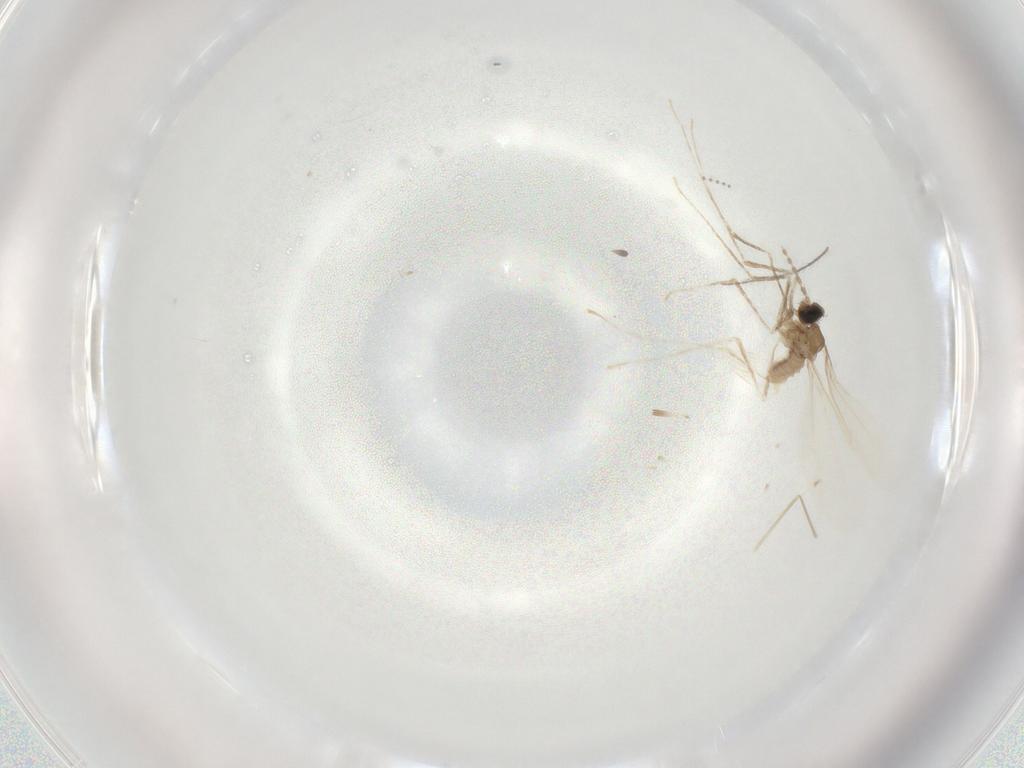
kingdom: Animalia
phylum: Arthropoda
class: Insecta
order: Diptera
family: Cecidomyiidae
